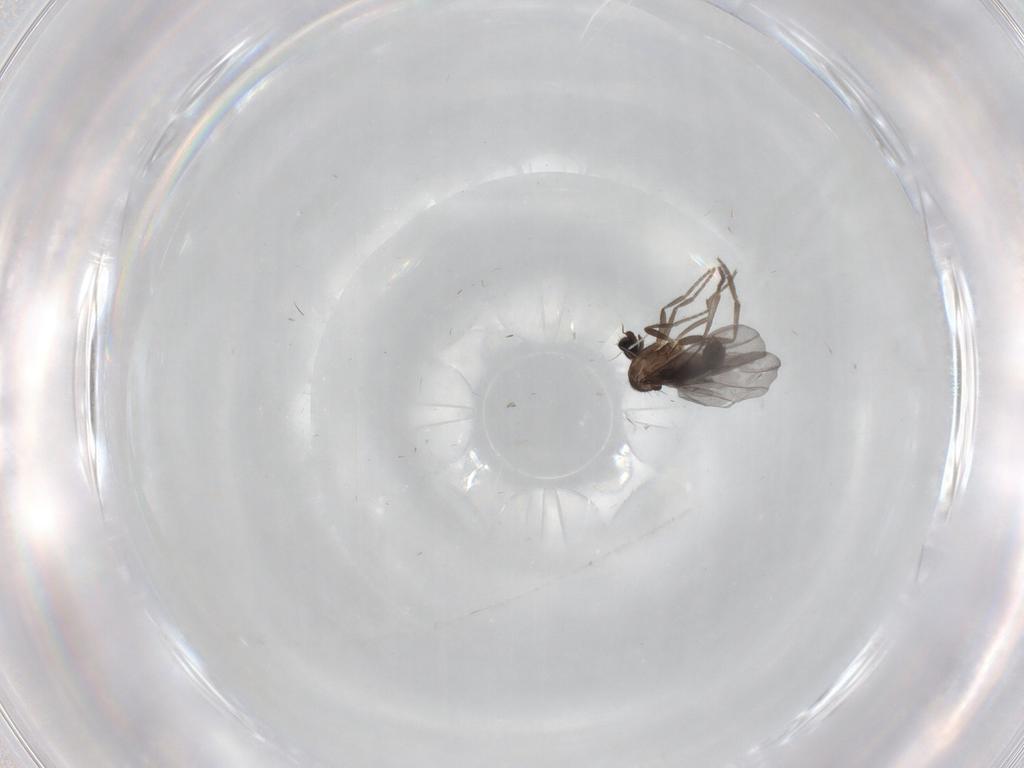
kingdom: Animalia
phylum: Arthropoda
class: Insecta
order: Diptera
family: Phoridae
